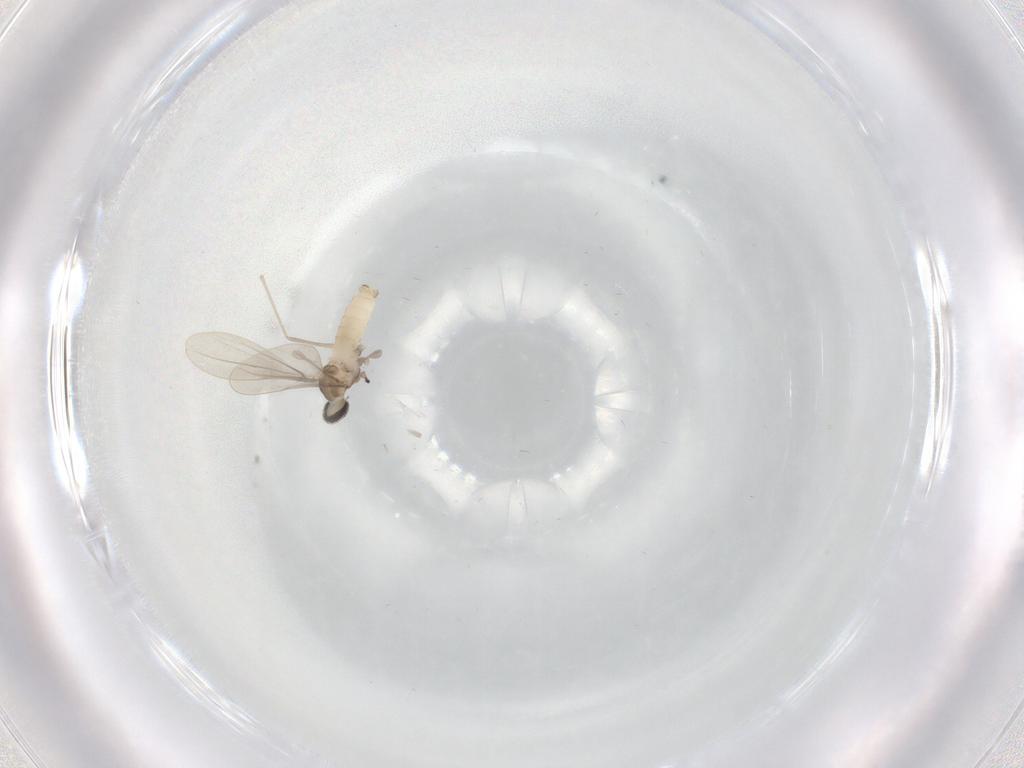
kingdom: Animalia
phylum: Arthropoda
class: Insecta
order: Diptera
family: Cecidomyiidae
